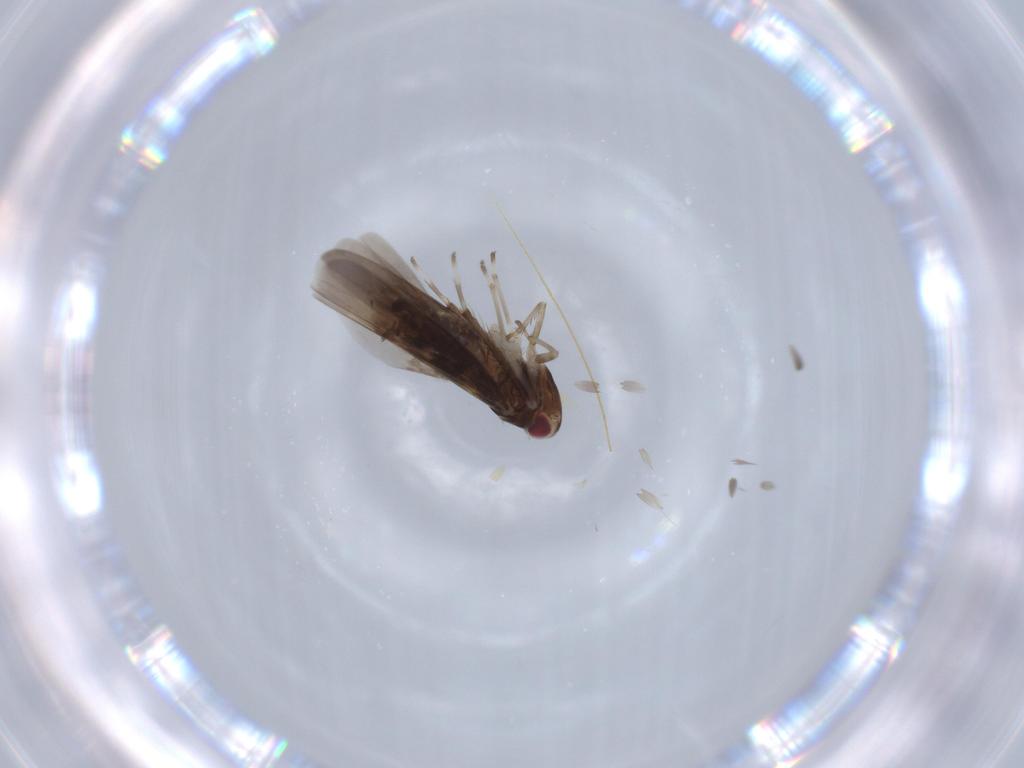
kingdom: Animalia
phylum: Arthropoda
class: Insecta
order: Hemiptera
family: Cicadellidae
